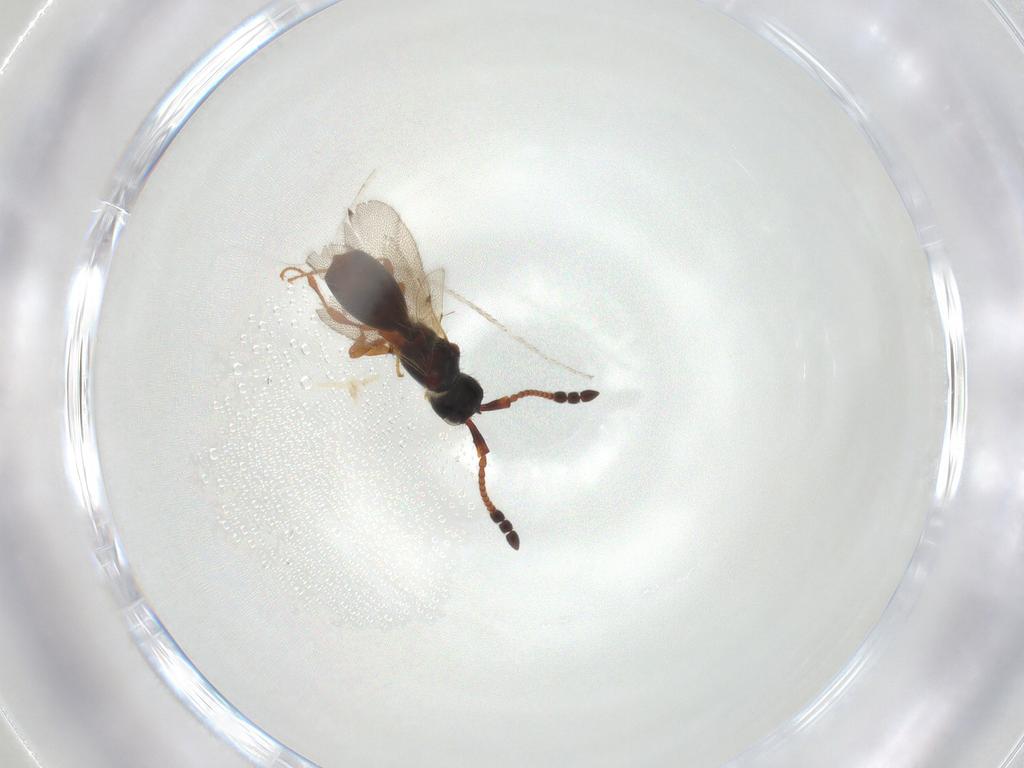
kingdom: Animalia
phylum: Arthropoda
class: Insecta
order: Hymenoptera
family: Diapriidae
